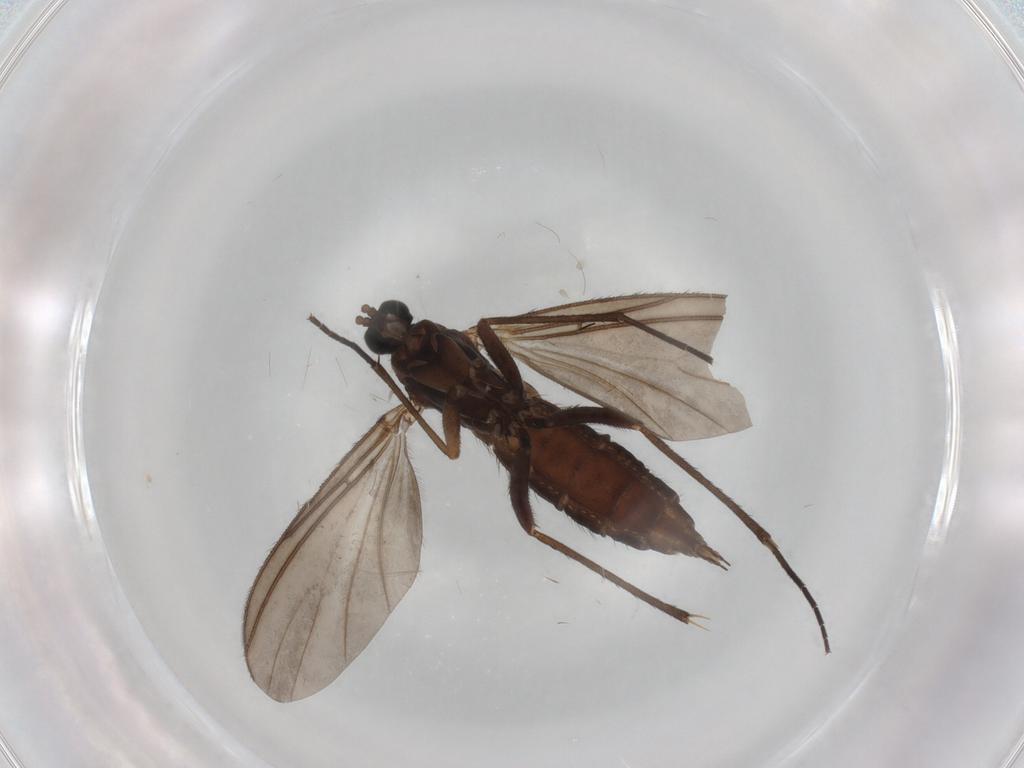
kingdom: Animalia
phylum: Arthropoda
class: Insecta
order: Diptera
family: Sciaridae
